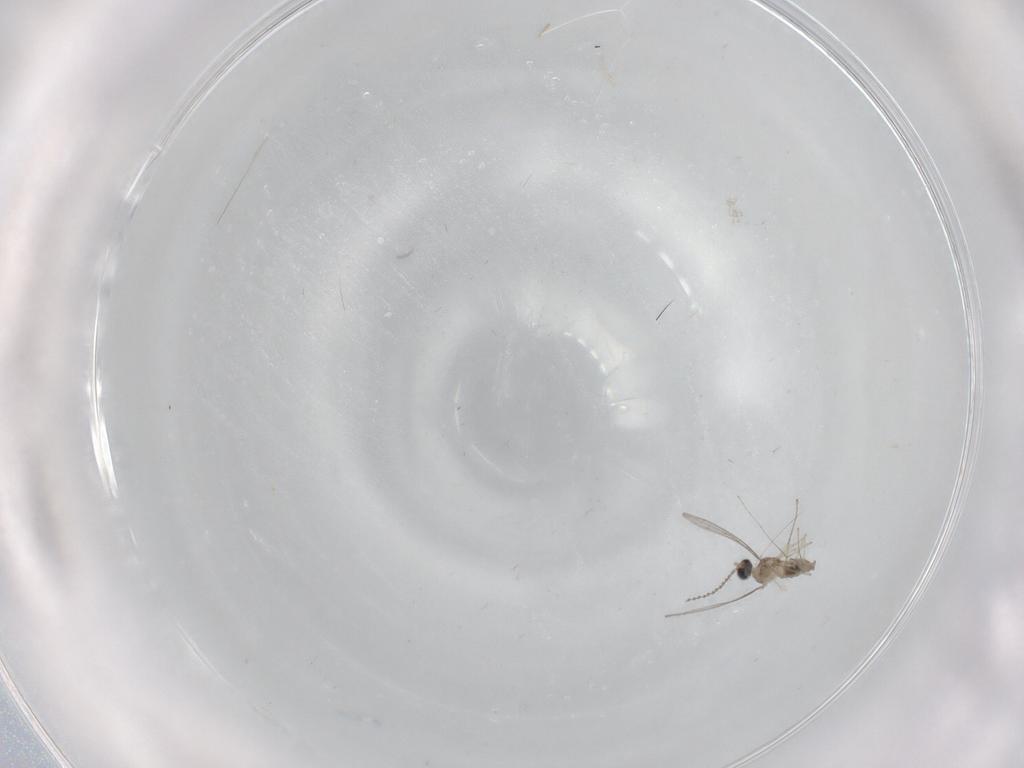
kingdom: Animalia
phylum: Arthropoda
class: Insecta
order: Diptera
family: Cecidomyiidae
